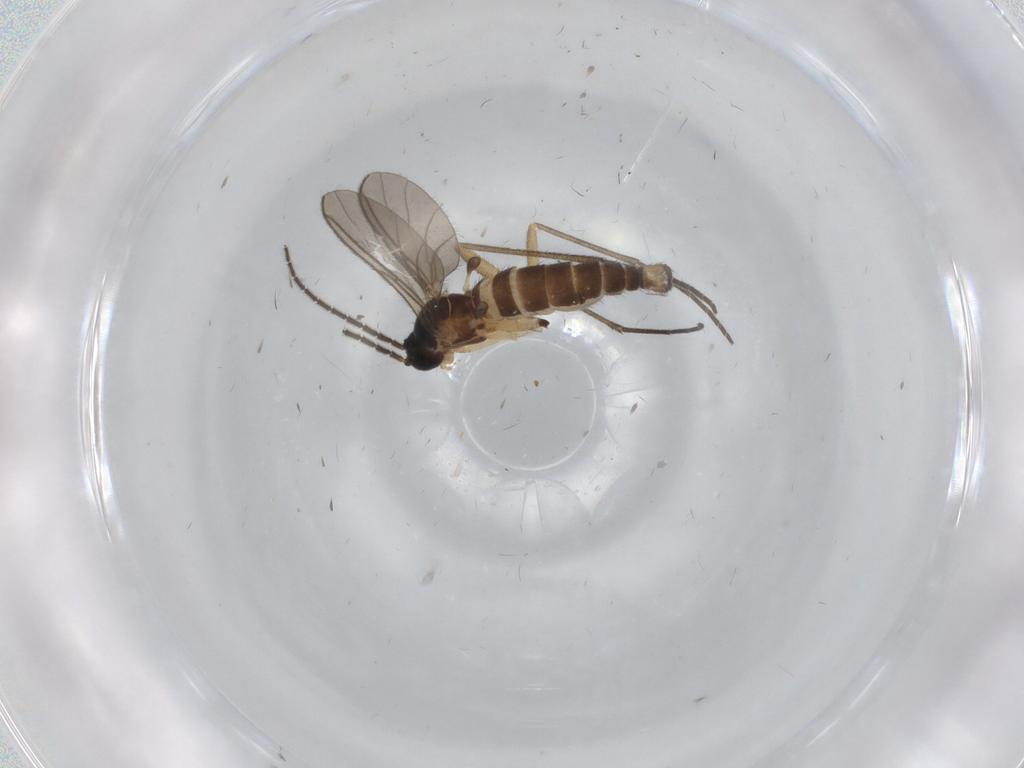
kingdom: Animalia
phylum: Arthropoda
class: Insecta
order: Diptera
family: Sciaridae
